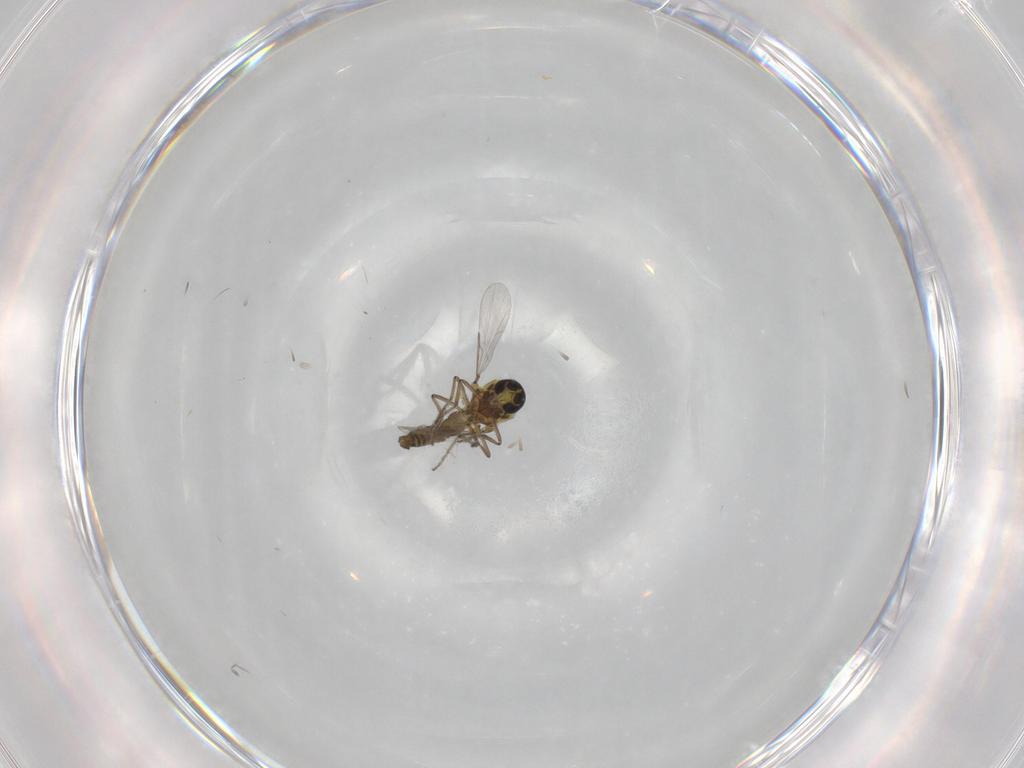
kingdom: Animalia
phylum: Arthropoda
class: Insecta
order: Diptera
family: Ceratopogonidae
